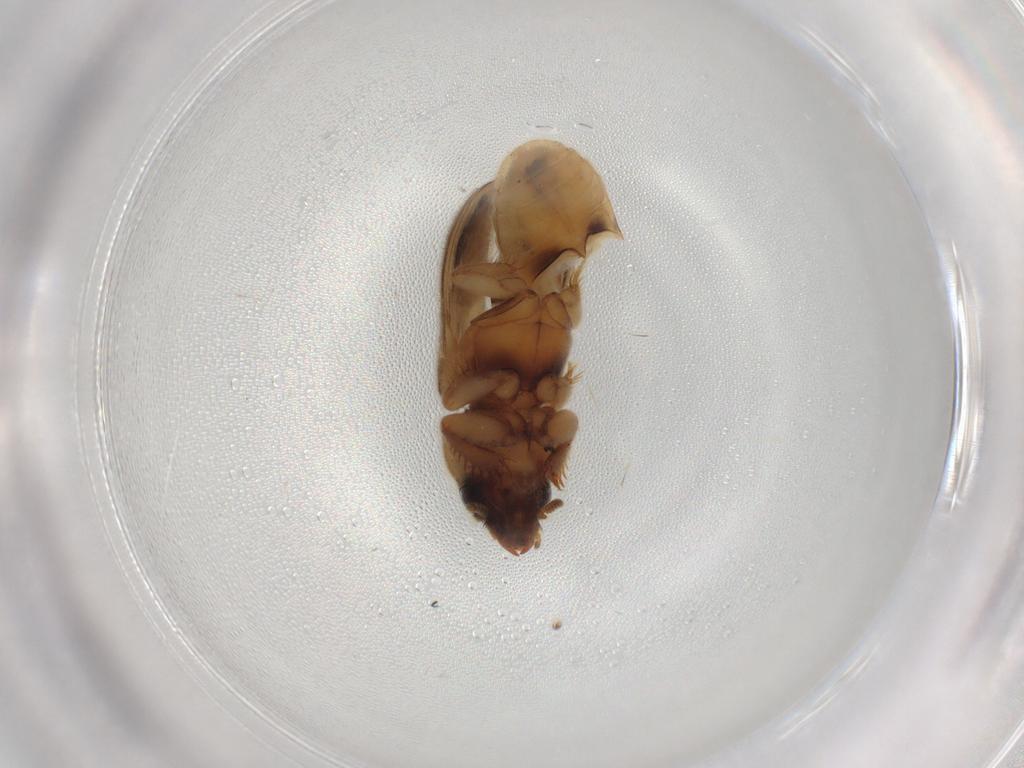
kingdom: Animalia
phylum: Arthropoda
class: Insecta
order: Coleoptera
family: Heteroceridae
